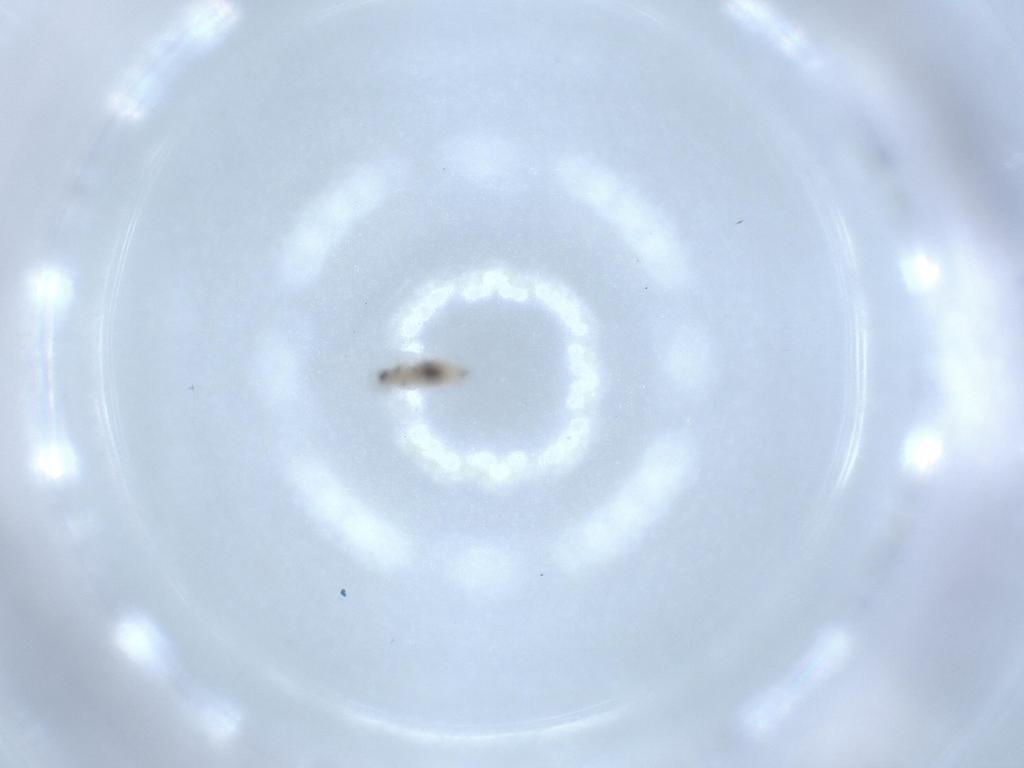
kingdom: Animalia
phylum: Arthropoda
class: Insecta
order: Diptera
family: Sciaridae
